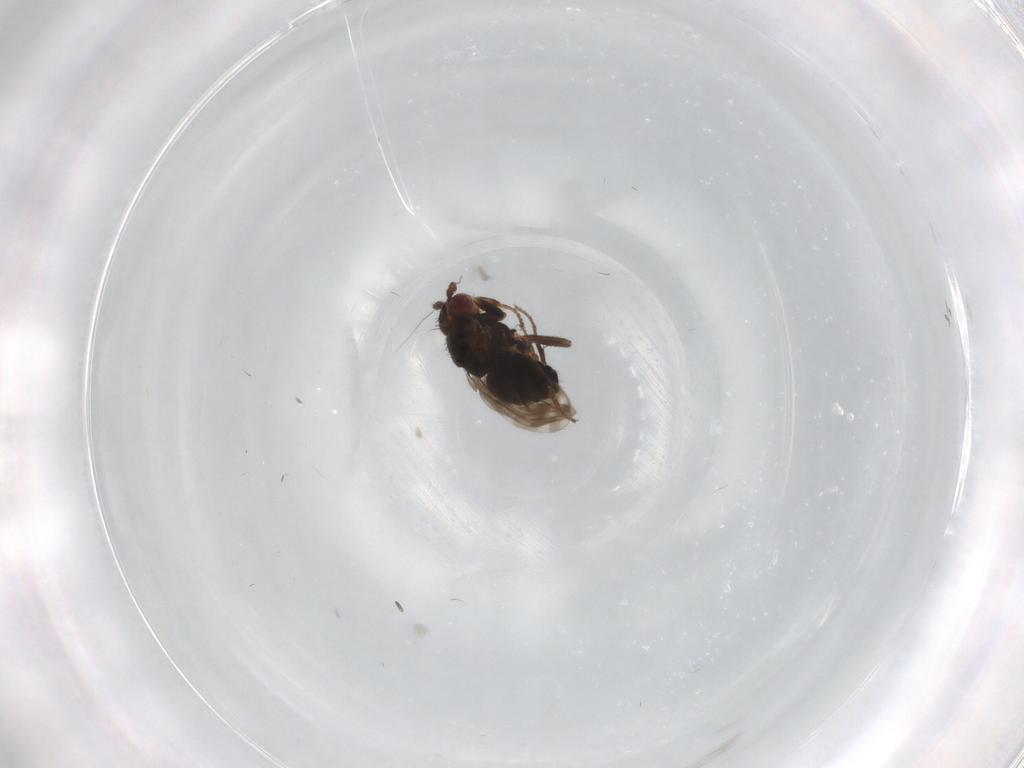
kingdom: Animalia
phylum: Arthropoda
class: Insecta
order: Diptera
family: Sphaeroceridae
